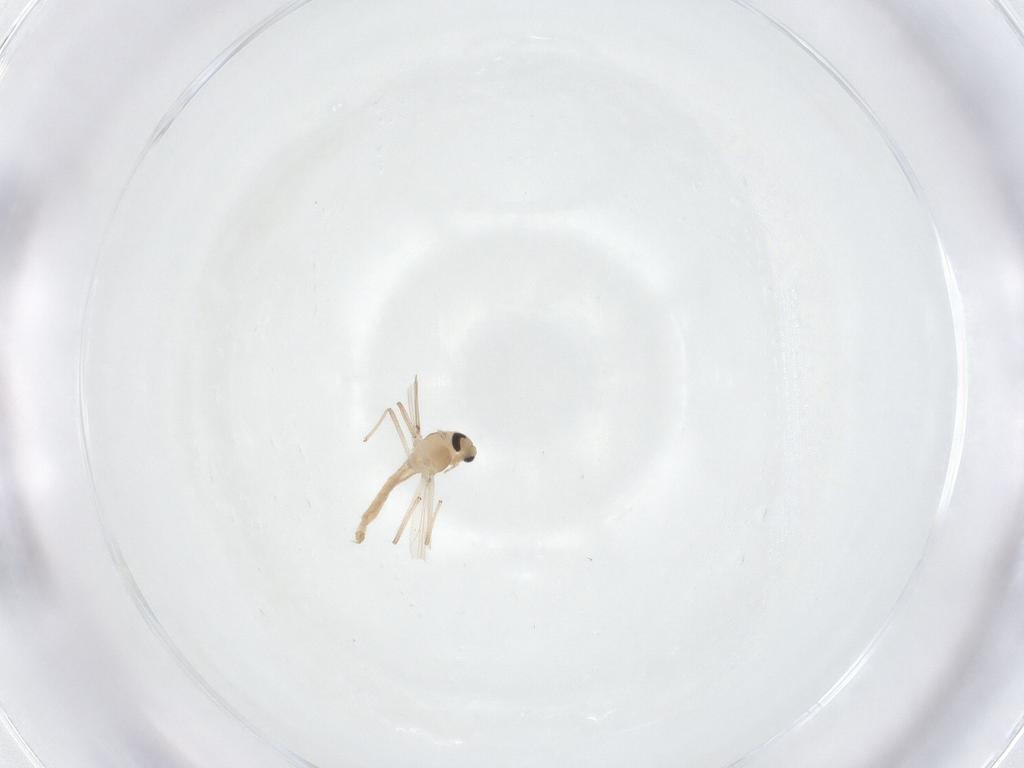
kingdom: Animalia
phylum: Arthropoda
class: Insecta
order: Diptera
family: Chironomidae
